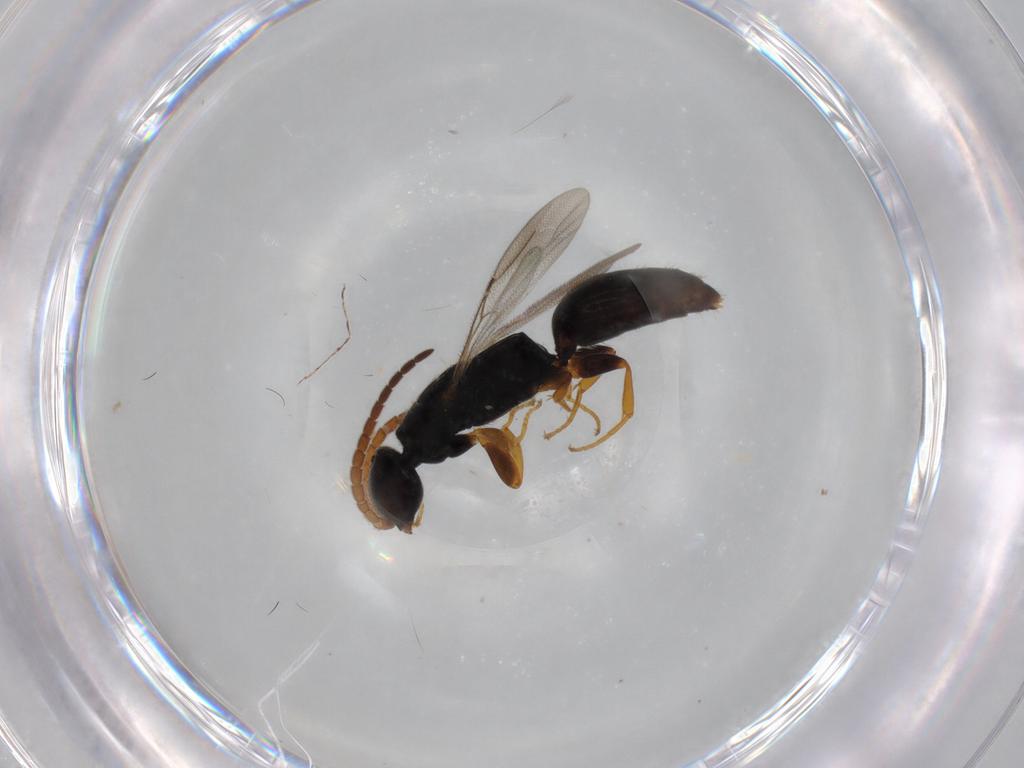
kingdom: Animalia
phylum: Arthropoda
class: Insecta
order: Hymenoptera
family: Bethylidae
